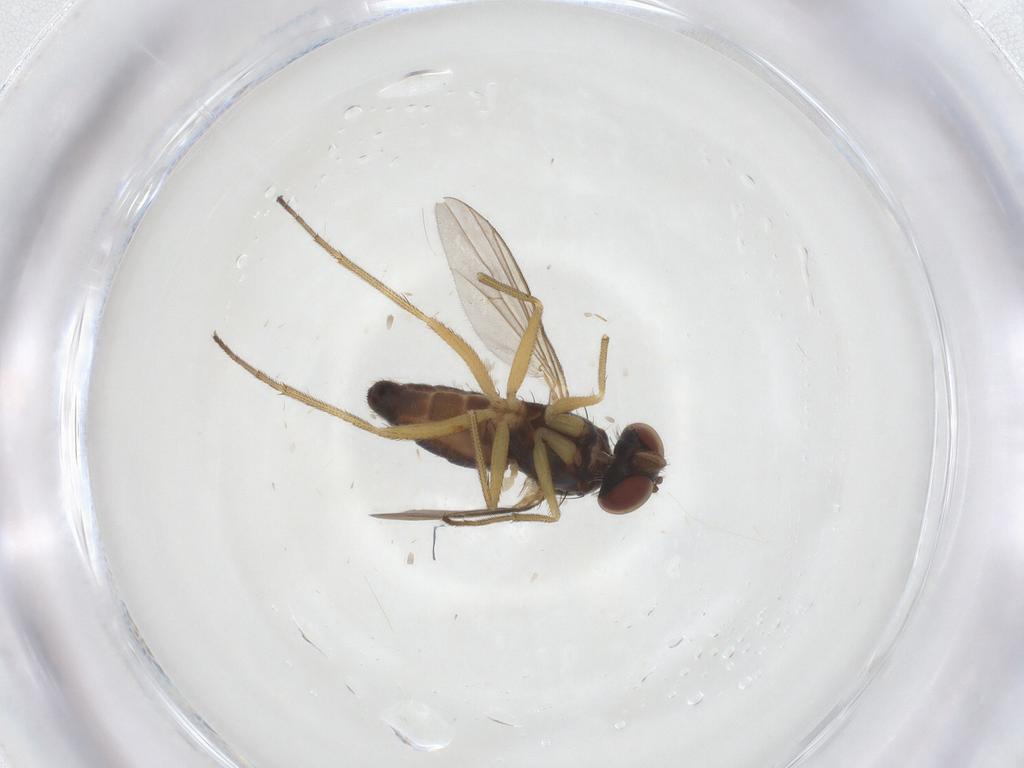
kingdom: Animalia
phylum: Arthropoda
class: Insecta
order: Diptera
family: Dolichopodidae
